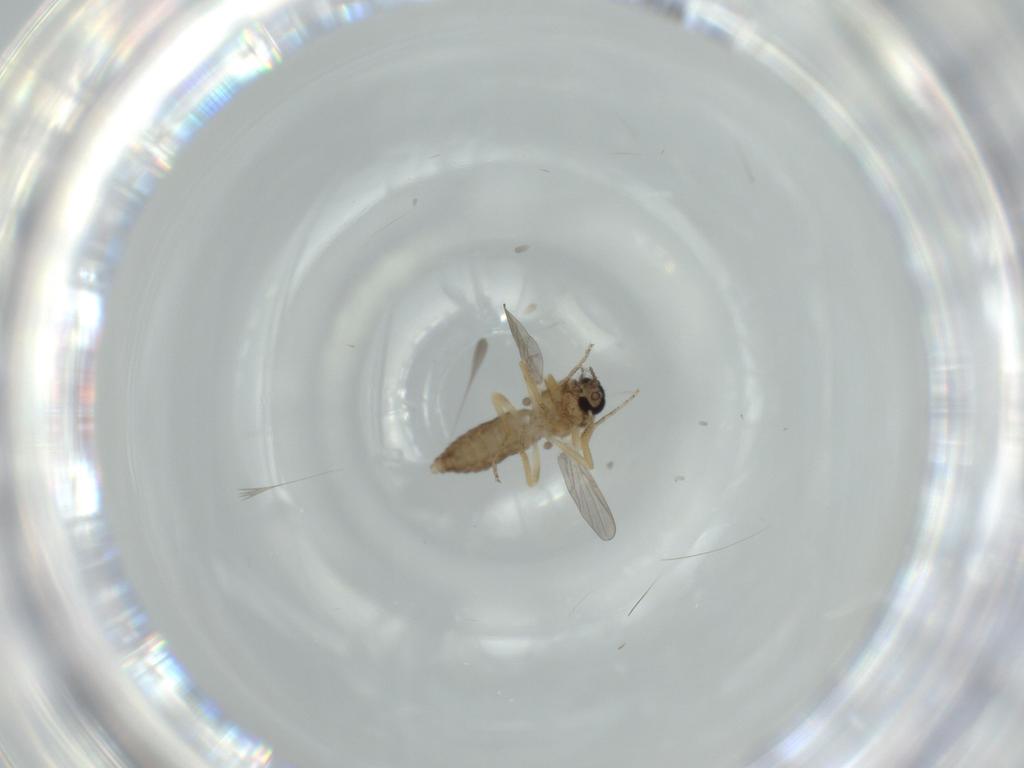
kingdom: Animalia
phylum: Arthropoda
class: Insecta
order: Diptera
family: Ceratopogonidae
